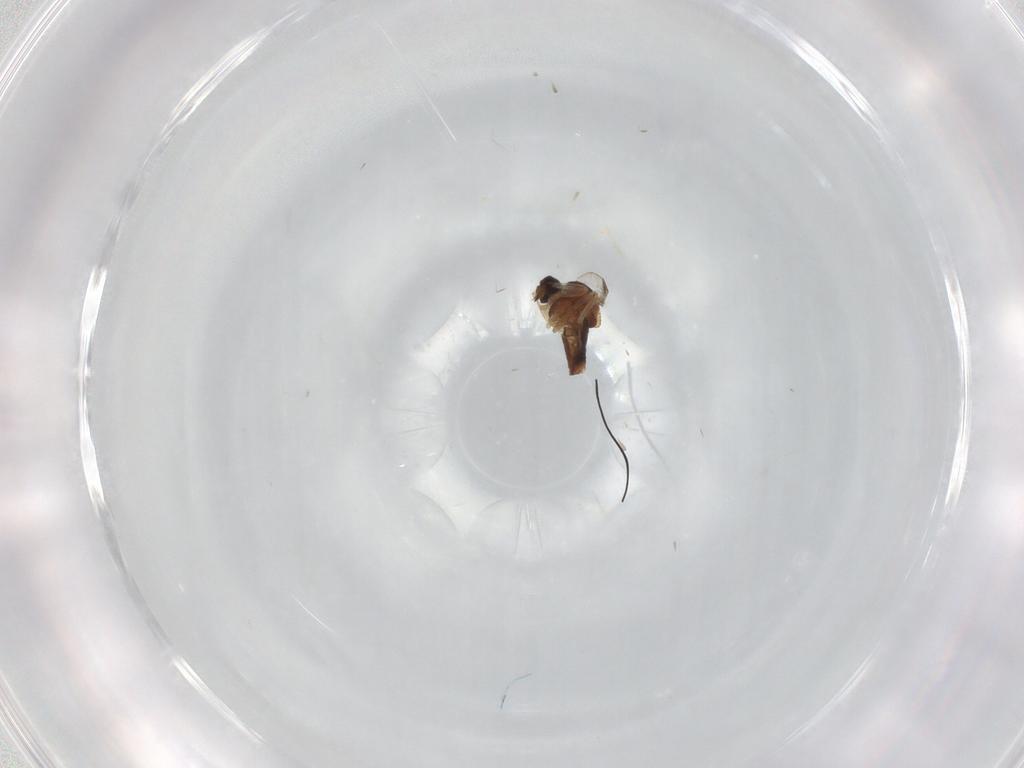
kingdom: Animalia
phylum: Arthropoda
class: Insecta
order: Diptera
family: Ceratopogonidae
